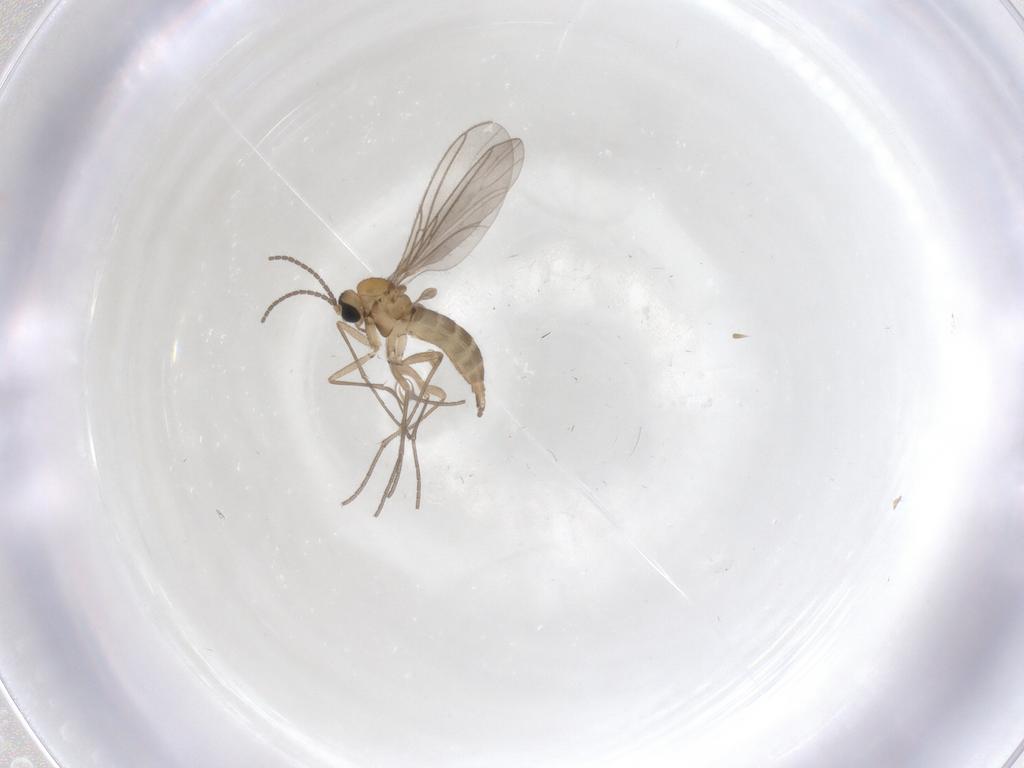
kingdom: Animalia
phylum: Arthropoda
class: Insecta
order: Diptera
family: Sciaridae
